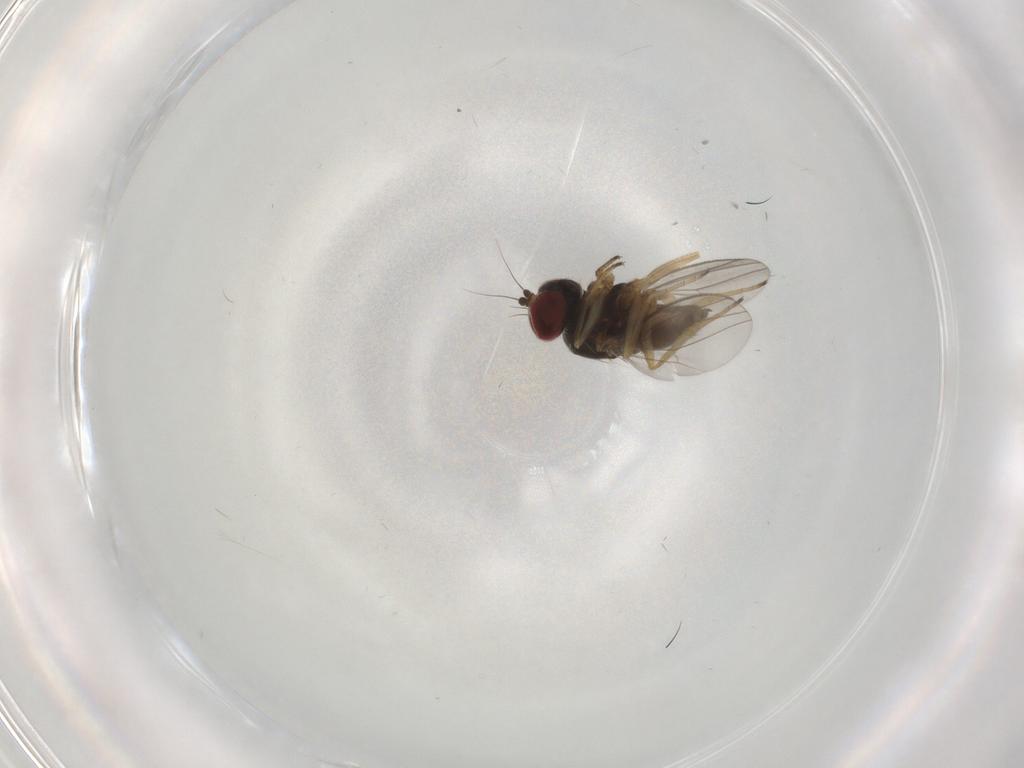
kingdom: Animalia
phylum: Arthropoda
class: Insecta
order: Diptera
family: Dolichopodidae
